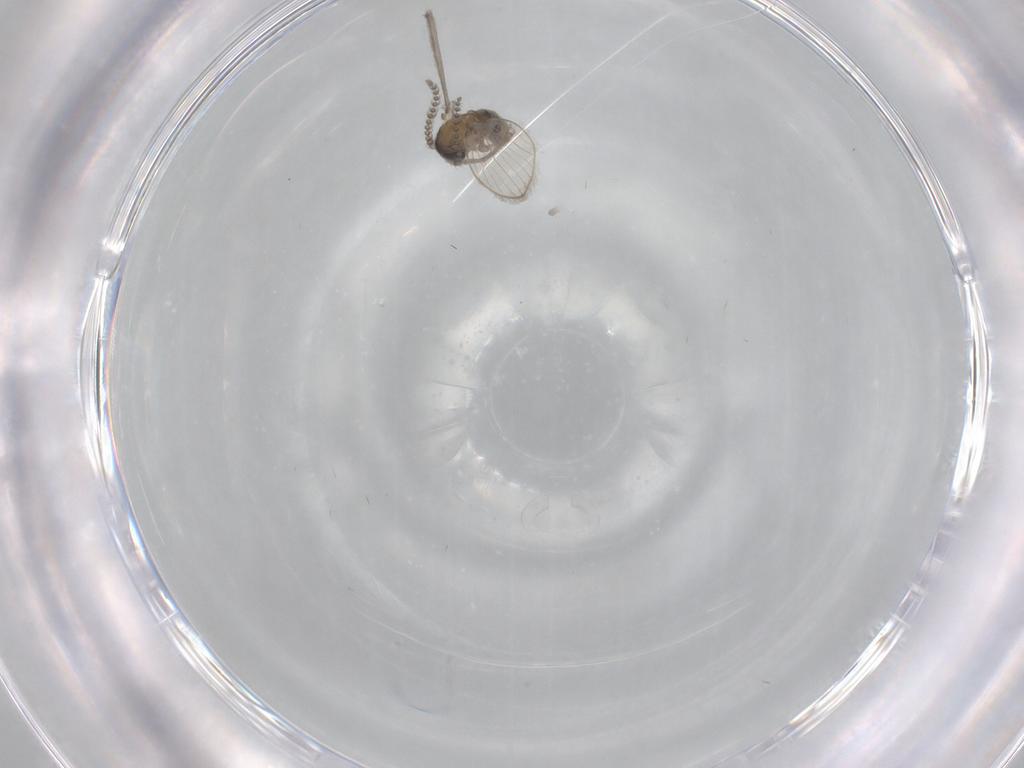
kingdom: Animalia
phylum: Arthropoda
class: Insecta
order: Diptera
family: Psychodidae
